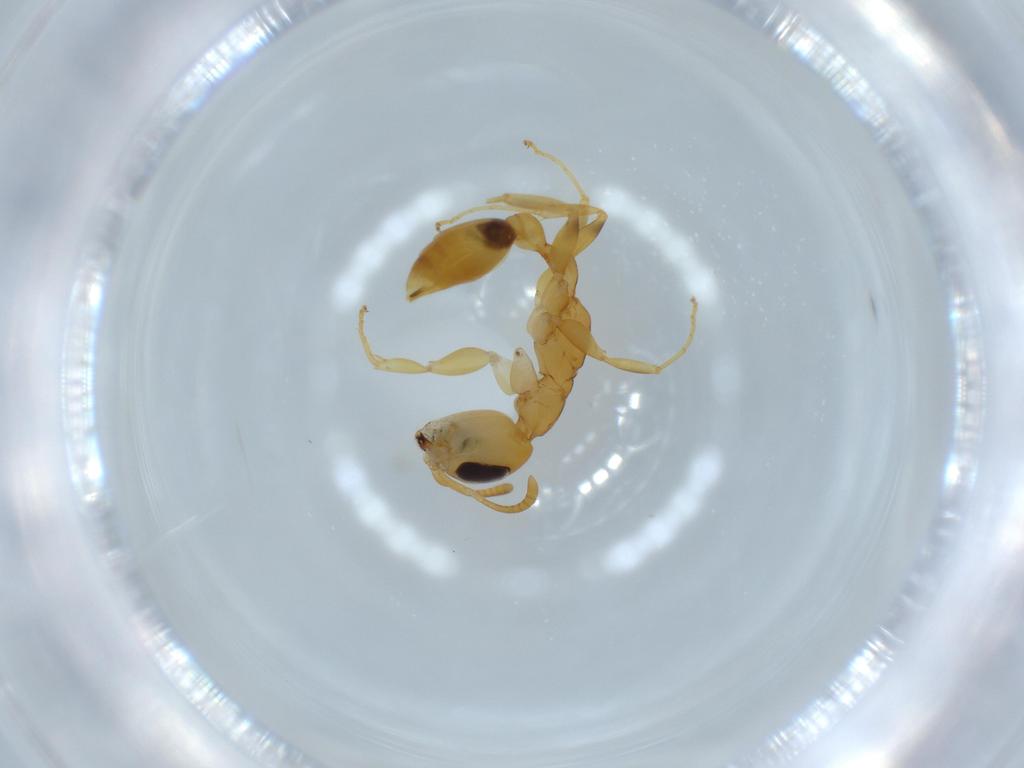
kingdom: Animalia
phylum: Arthropoda
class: Insecta
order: Hymenoptera
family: Formicidae
